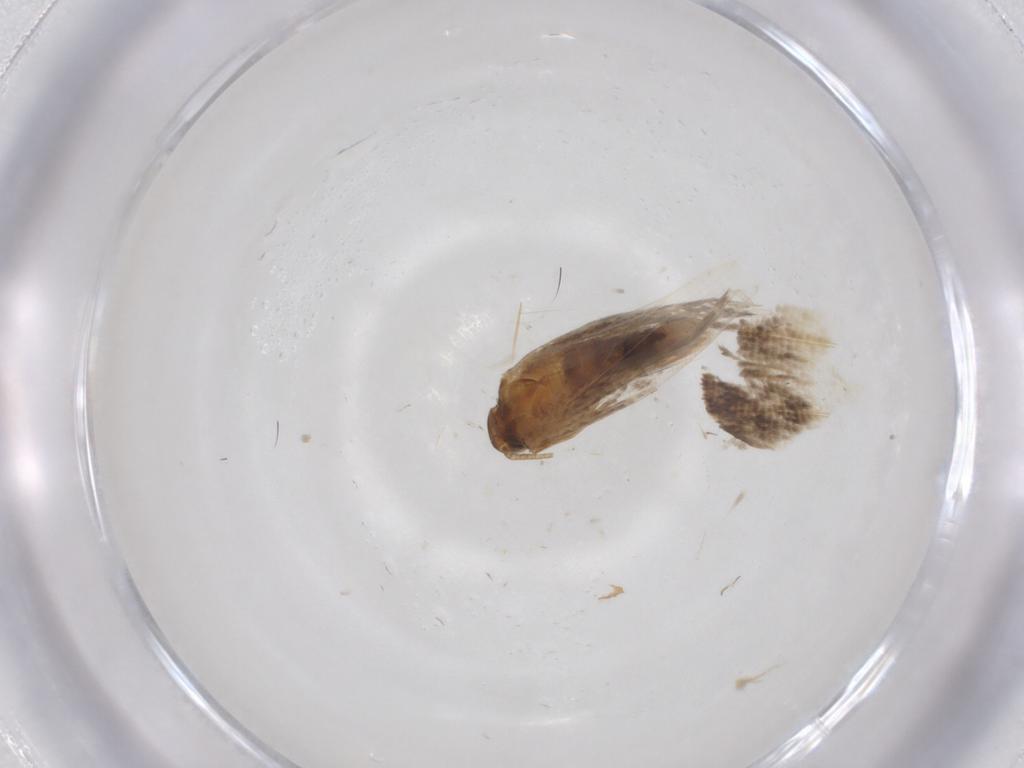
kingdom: Animalia
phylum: Arthropoda
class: Insecta
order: Lepidoptera
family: Gelechiidae
